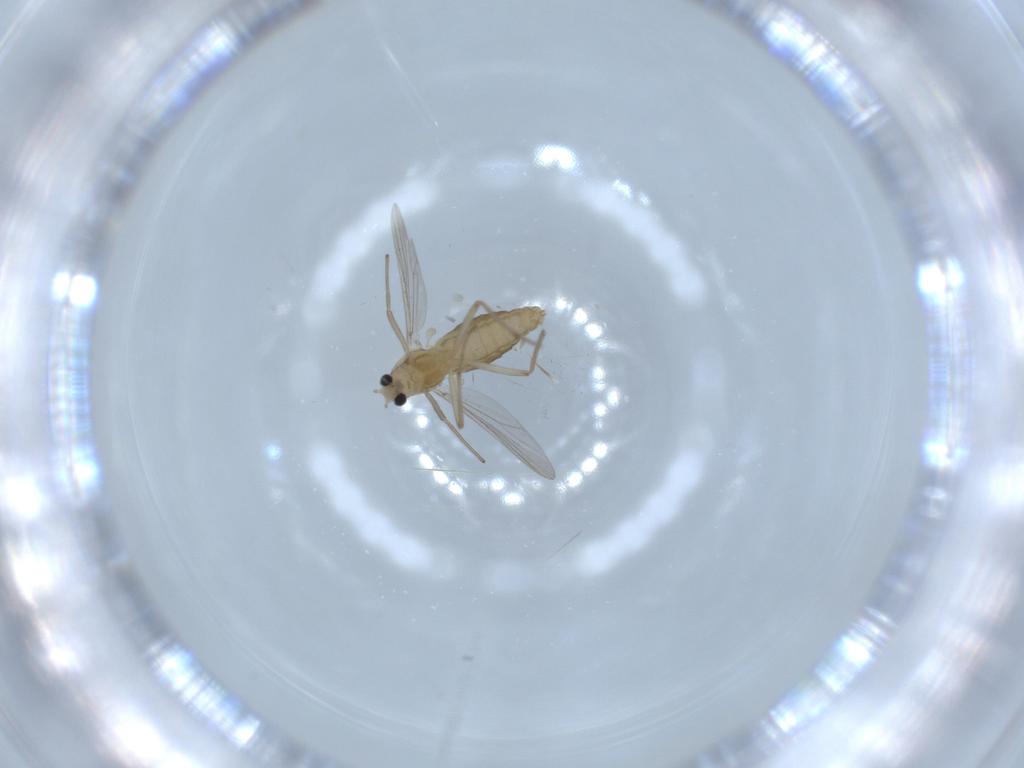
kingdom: Animalia
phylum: Arthropoda
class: Insecta
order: Diptera
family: Chironomidae
